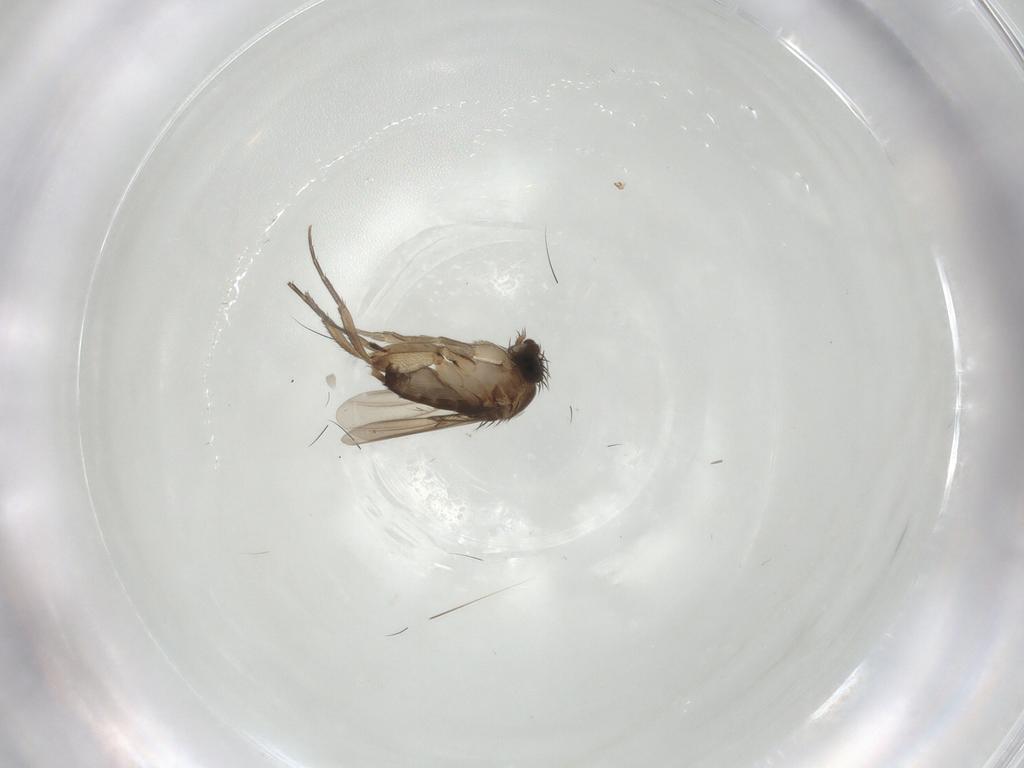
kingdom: Animalia
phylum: Arthropoda
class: Insecta
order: Diptera
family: Phoridae
